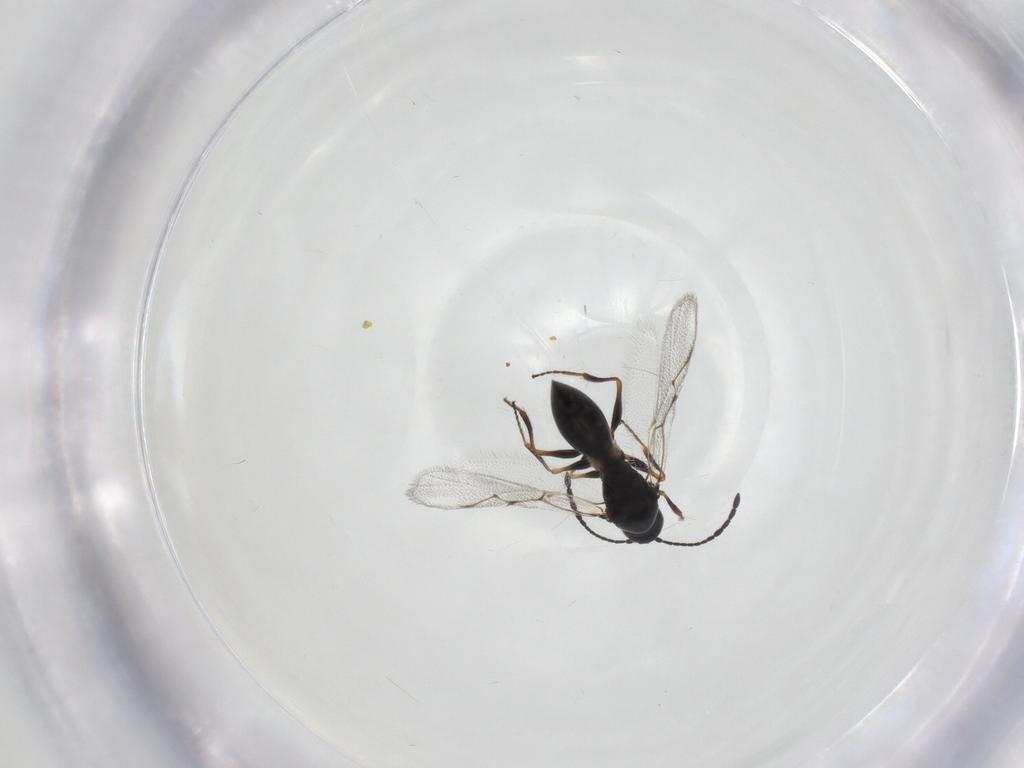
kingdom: Animalia
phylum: Arthropoda
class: Insecta
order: Hymenoptera
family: Figitidae
